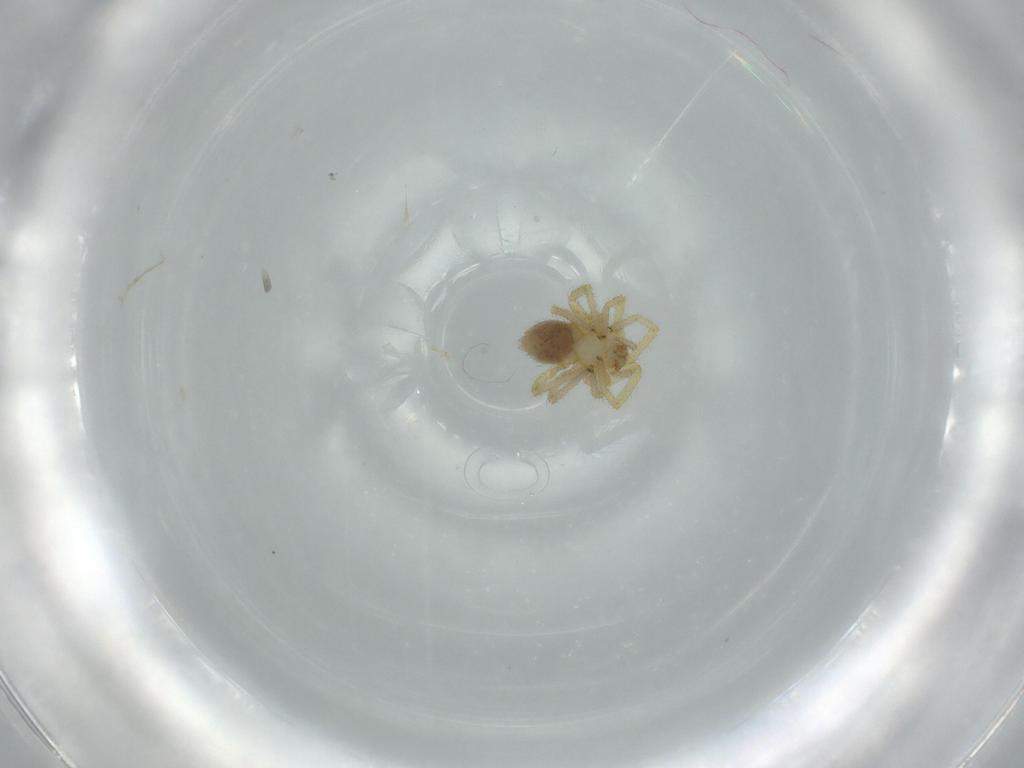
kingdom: Animalia
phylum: Arthropoda
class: Arachnida
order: Araneae
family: Linyphiidae
